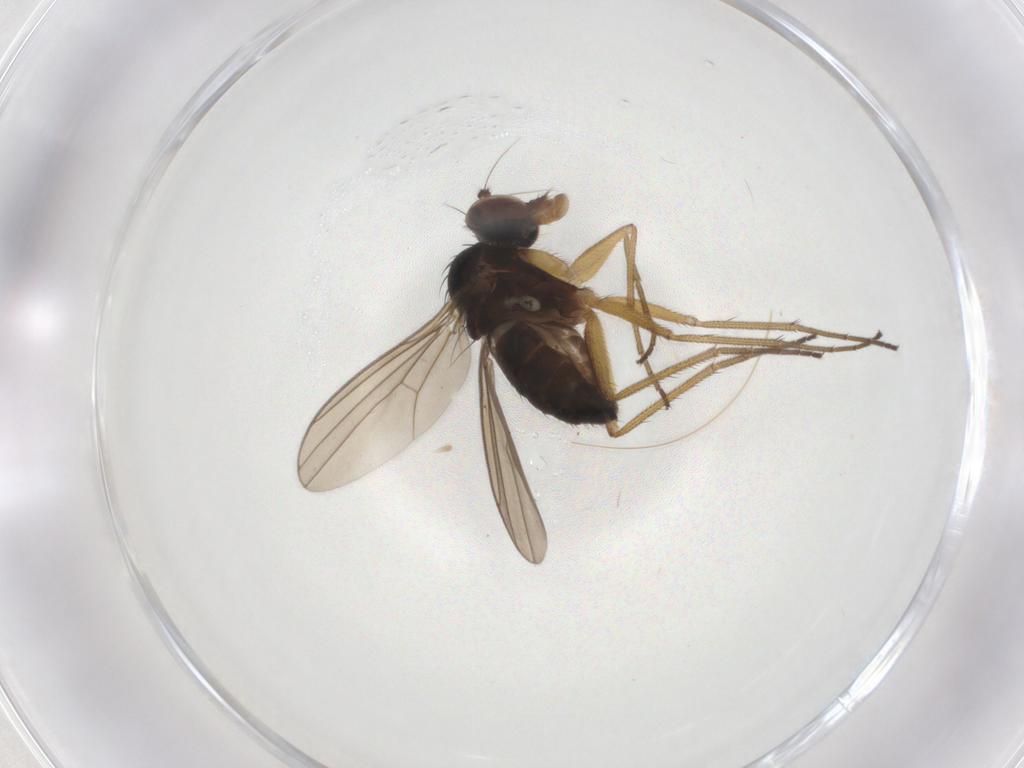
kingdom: Animalia
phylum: Arthropoda
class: Insecta
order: Diptera
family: Dolichopodidae
